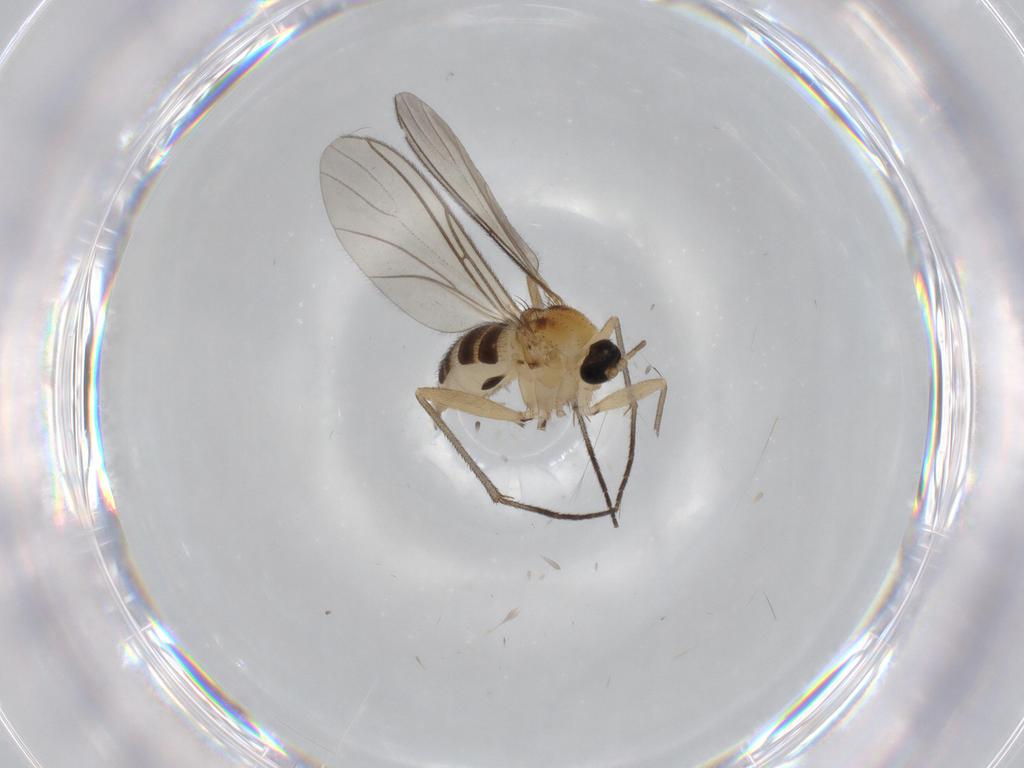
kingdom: Animalia
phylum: Arthropoda
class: Insecta
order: Diptera
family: Sciaridae
